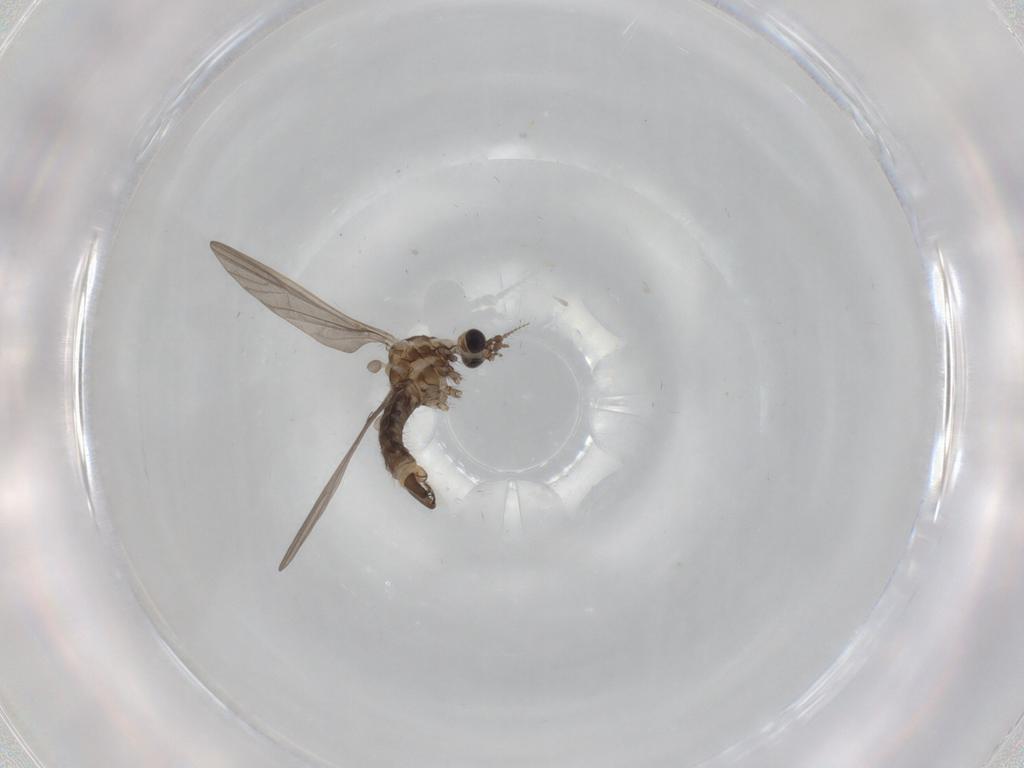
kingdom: Animalia
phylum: Arthropoda
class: Insecta
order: Diptera
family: Limoniidae
